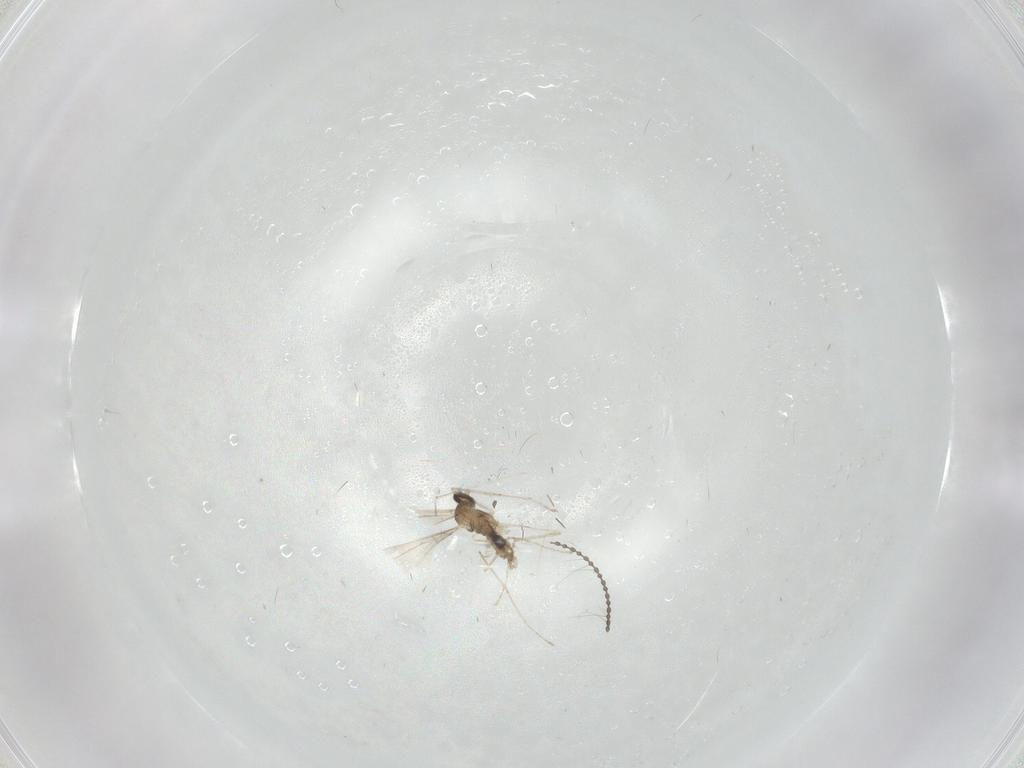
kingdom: Animalia
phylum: Arthropoda
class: Insecta
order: Diptera
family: Cecidomyiidae
